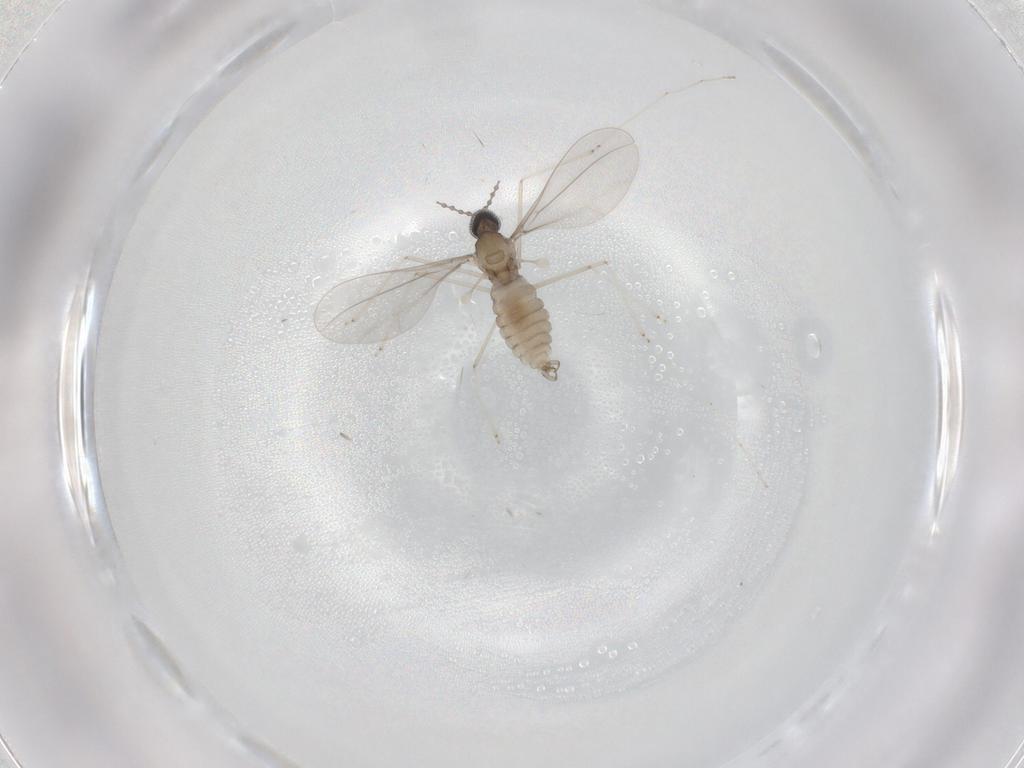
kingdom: Animalia
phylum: Arthropoda
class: Insecta
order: Diptera
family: Cecidomyiidae
